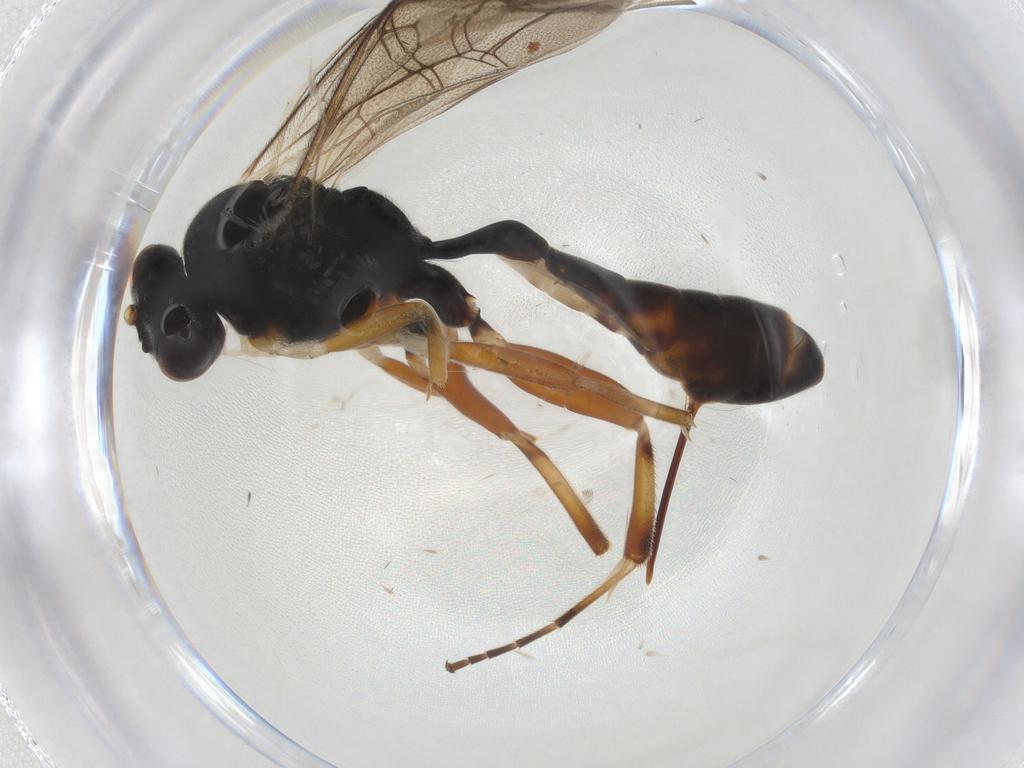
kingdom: Animalia
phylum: Arthropoda
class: Insecta
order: Hymenoptera
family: Ichneumonidae
